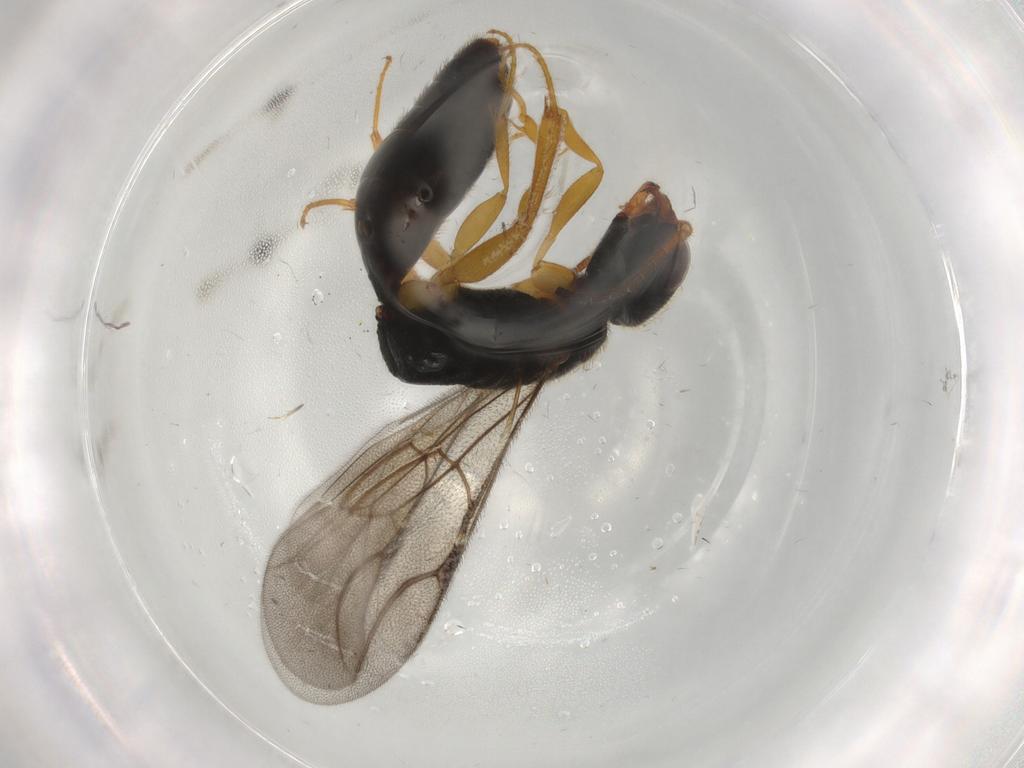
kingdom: Animalia
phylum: Arthropoda
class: Insecta
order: Hymenoptera
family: Bethylidae
